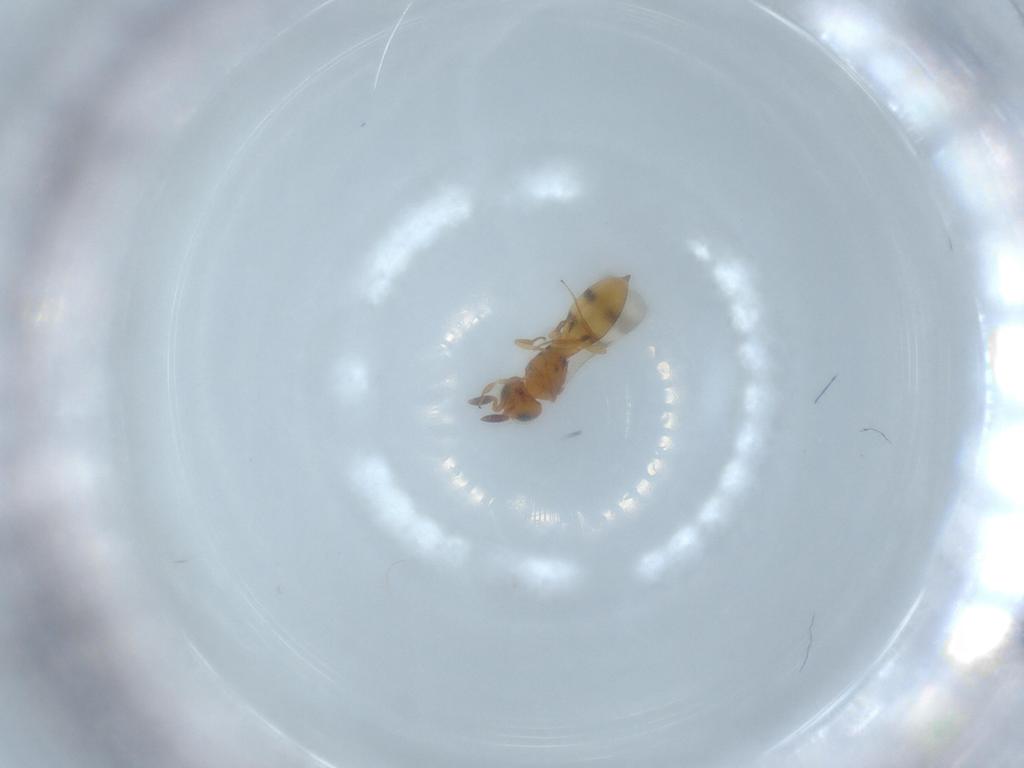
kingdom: Animalia
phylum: Arthropoda
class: Insecta
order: Hymenoptera
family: Scelionidae
